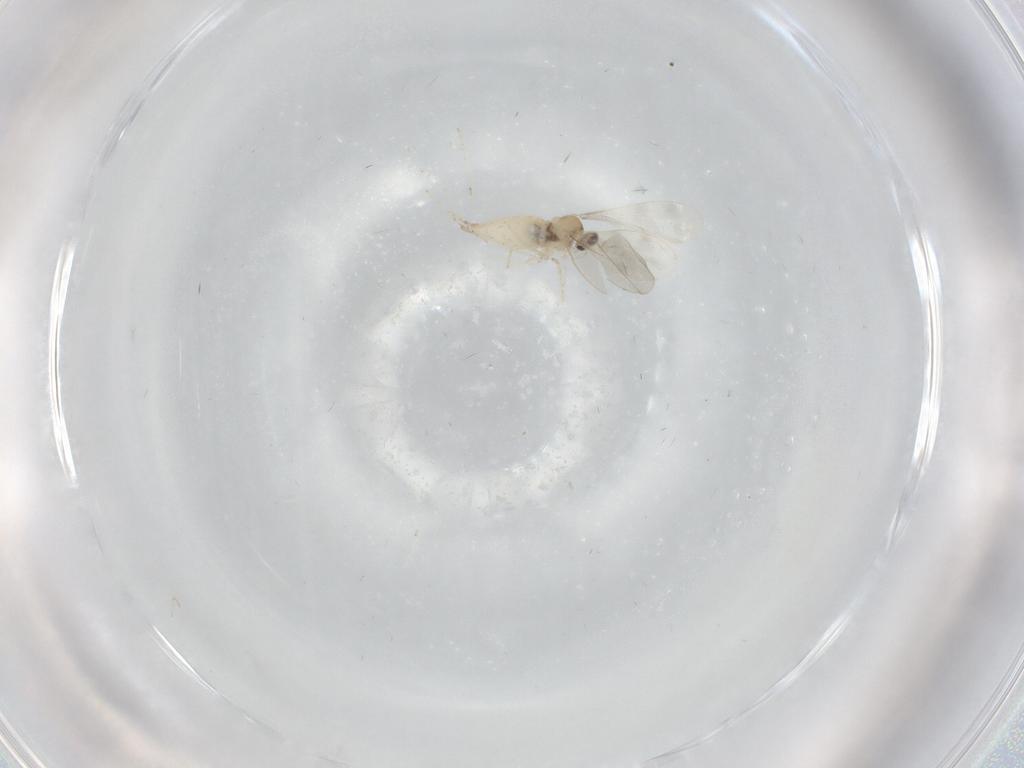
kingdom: Animalia
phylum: Arthropoda
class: Insecta
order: Diptera
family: Cecidomyiidae
